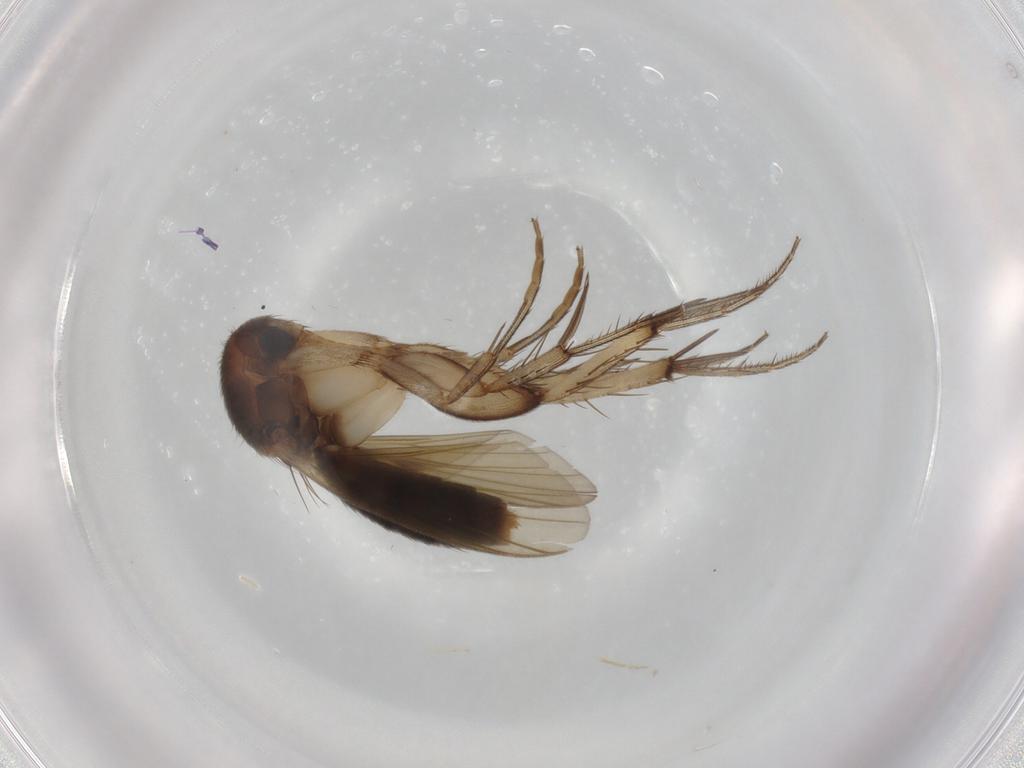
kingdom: Animalia
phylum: Arthropoda
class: Insecta
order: Diptera
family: Mycetophilidae
